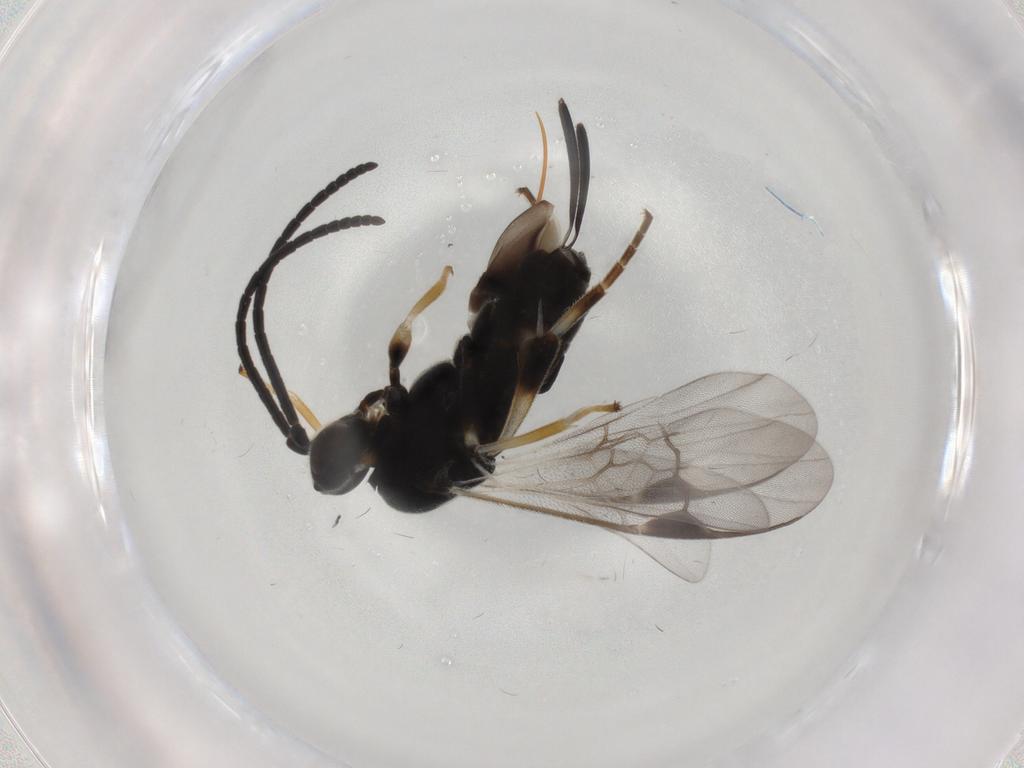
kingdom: Animalia
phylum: Arthropoda
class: Insecta
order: Hymenoptera
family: Braconidae
